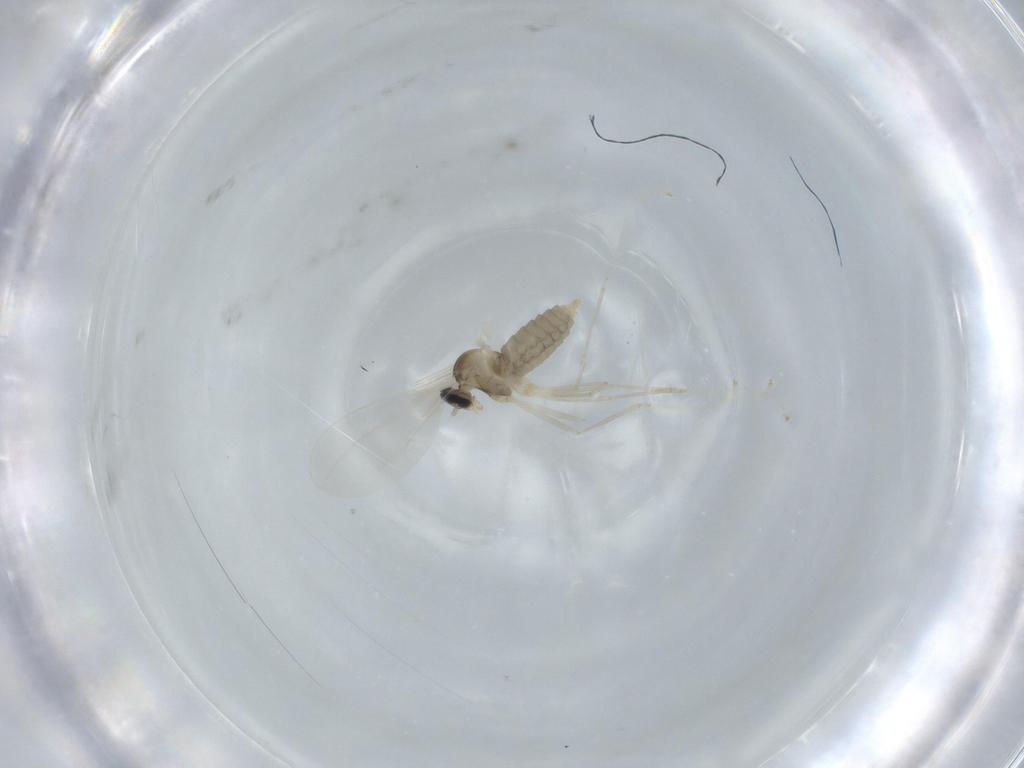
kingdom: Animalia
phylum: Arthropoda
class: Insecta
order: Diptera
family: Cecidomyiidae
